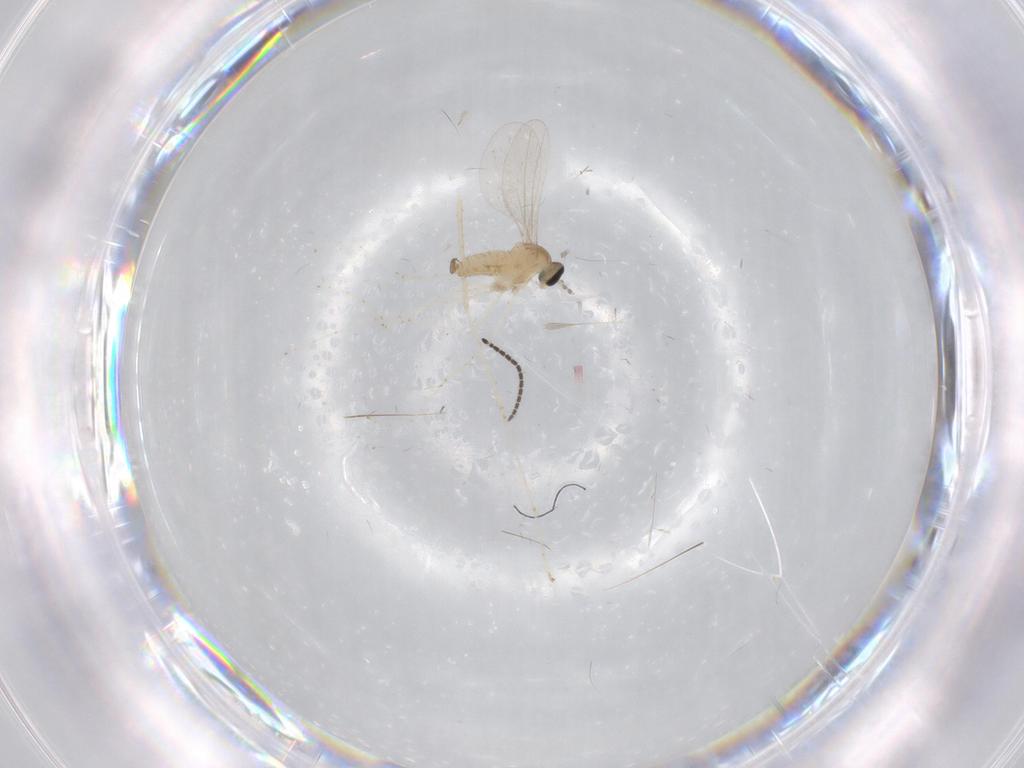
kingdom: Animalia
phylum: Arthropoda
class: Insecta
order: Diptera
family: Cecidomyiidae
